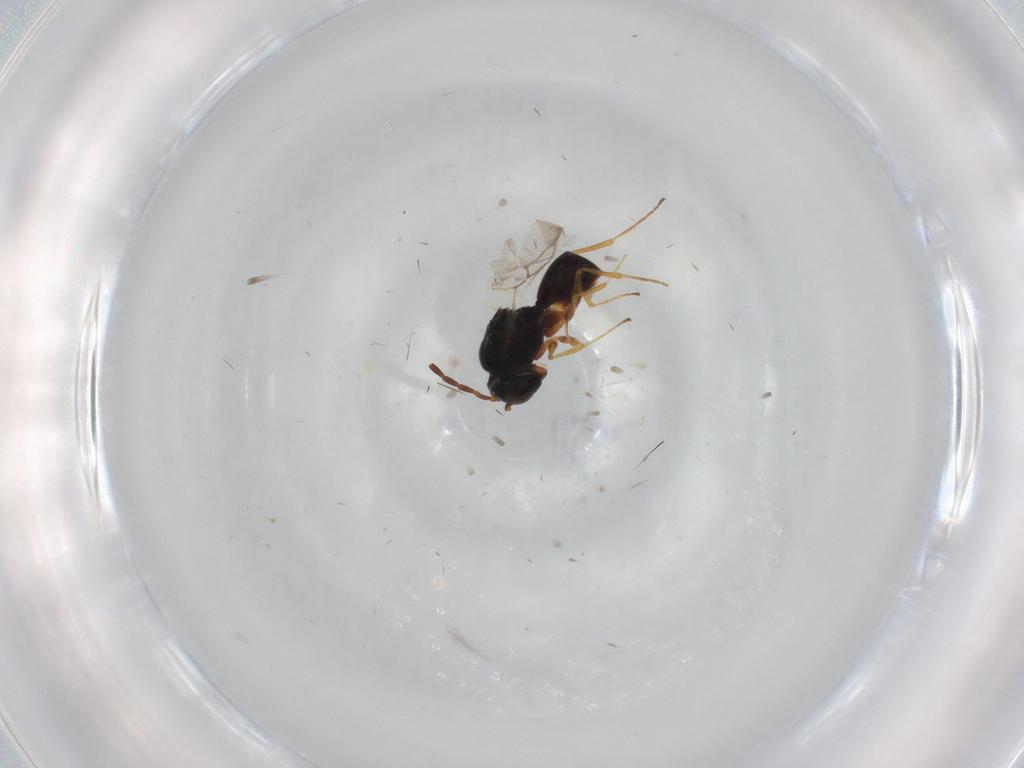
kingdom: Animalia
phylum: Arthropoda
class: Insecta
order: Hymenoptera
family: Figitidae
